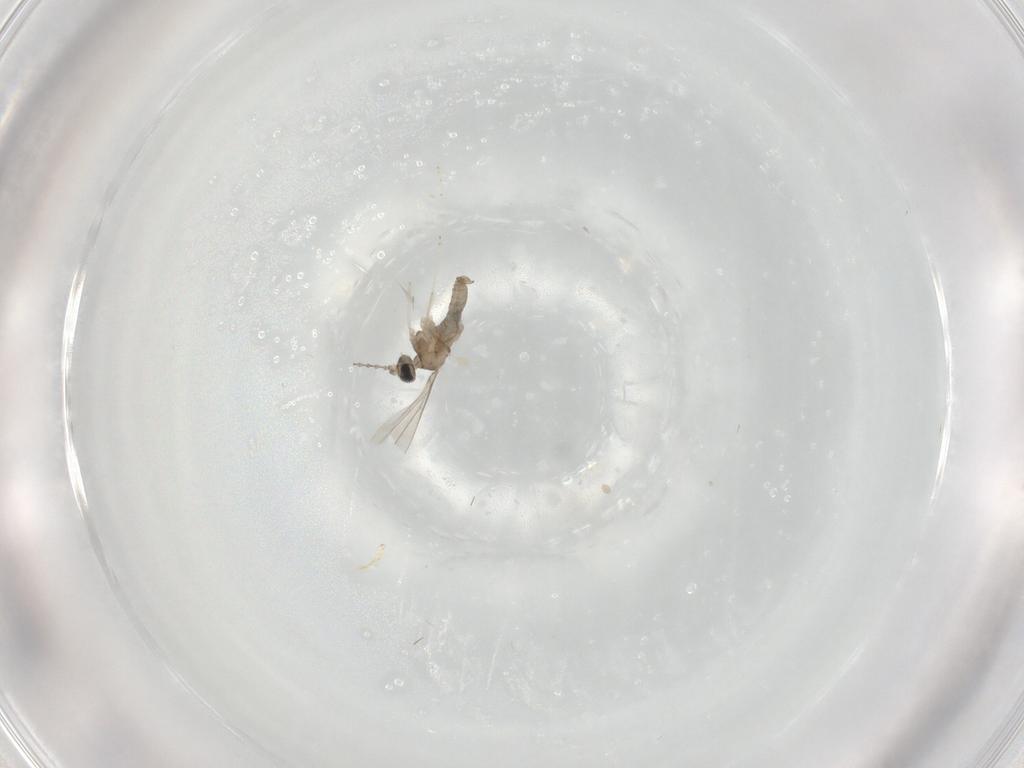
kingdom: Animalia
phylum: Arthropoda
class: Insecta
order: Diptera
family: Cecidomyiidae
